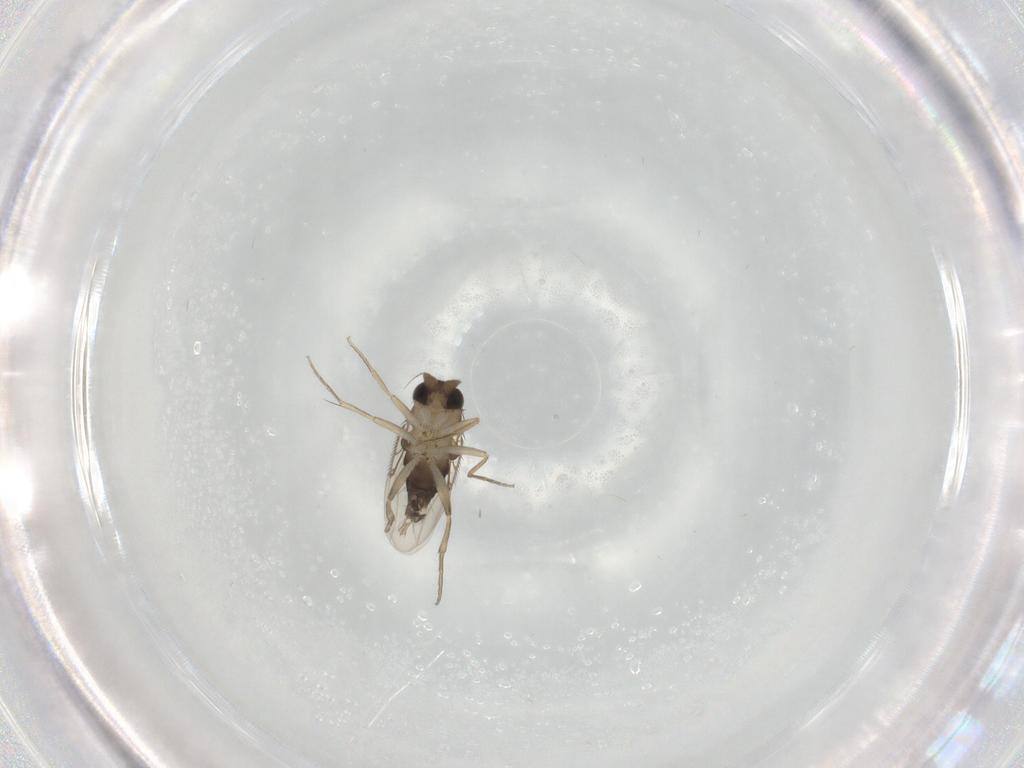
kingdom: Animalia
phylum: Arthropoda
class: Insecta
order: Diptera
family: Phoridae
